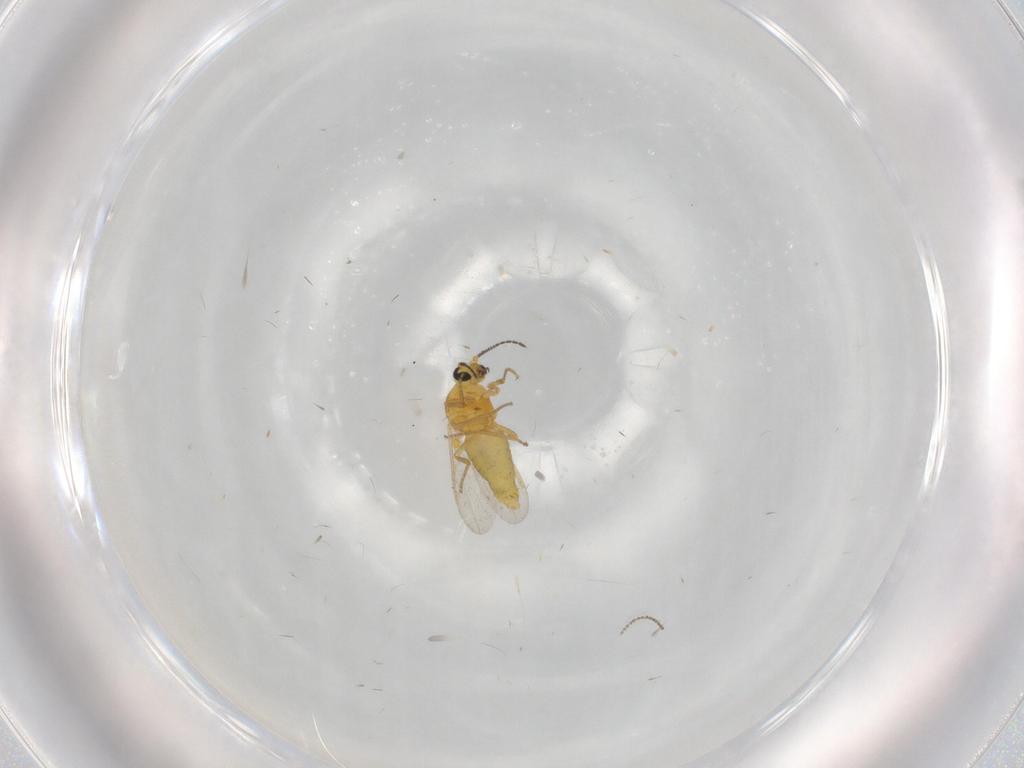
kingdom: Animalia
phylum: Arthropoda
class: Insecta
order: Diptera
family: Ceratopogonidae
